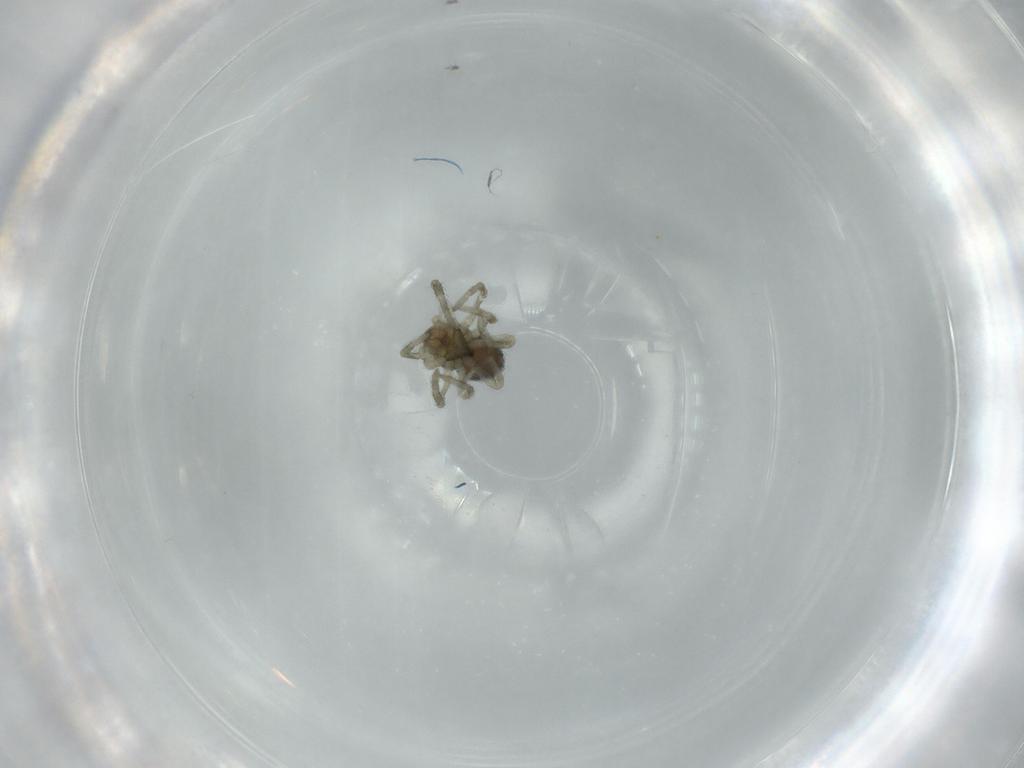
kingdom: Animalia
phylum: Arthropoda
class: Arachnida
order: Araneae
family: Dictynidae
